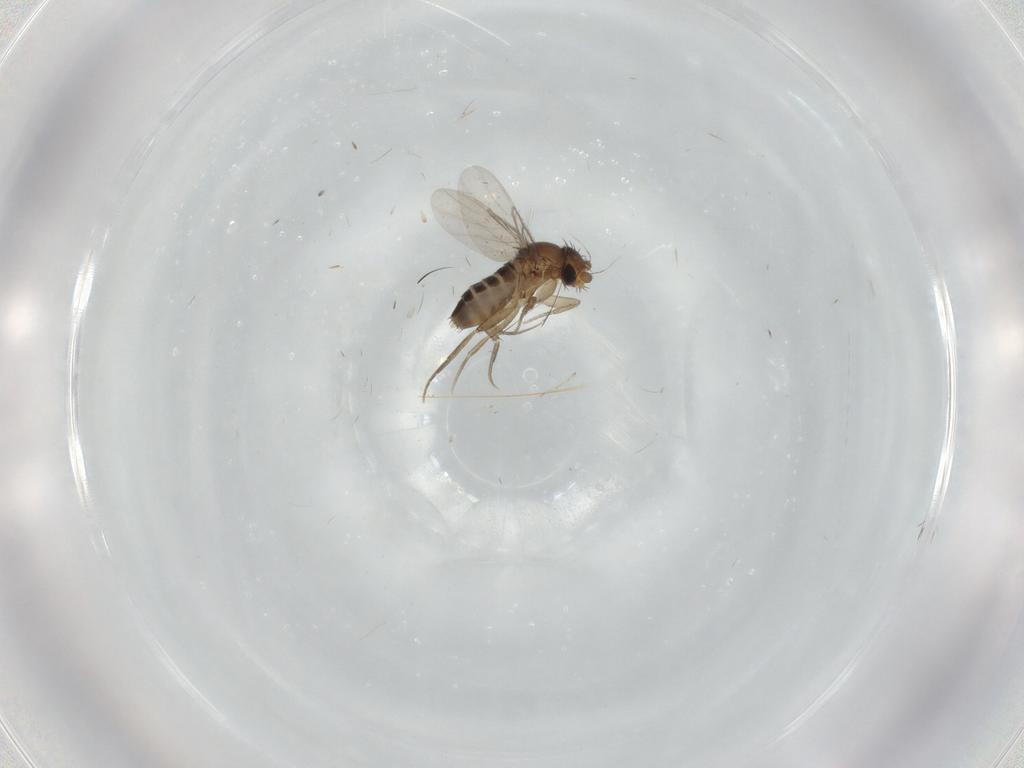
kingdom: Animalia
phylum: Arthropoda
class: Insecta
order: Diptera
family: Phoridae
